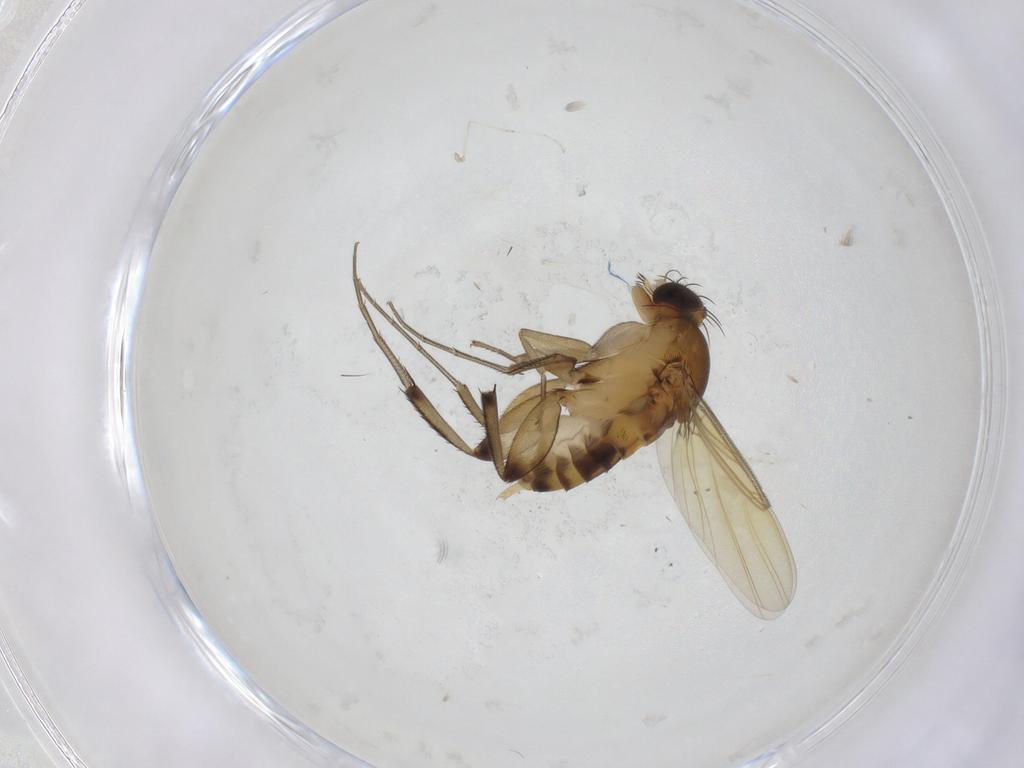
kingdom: Animalia
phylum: Arthropoda
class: Insecta
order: Diptera
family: Phoridae
